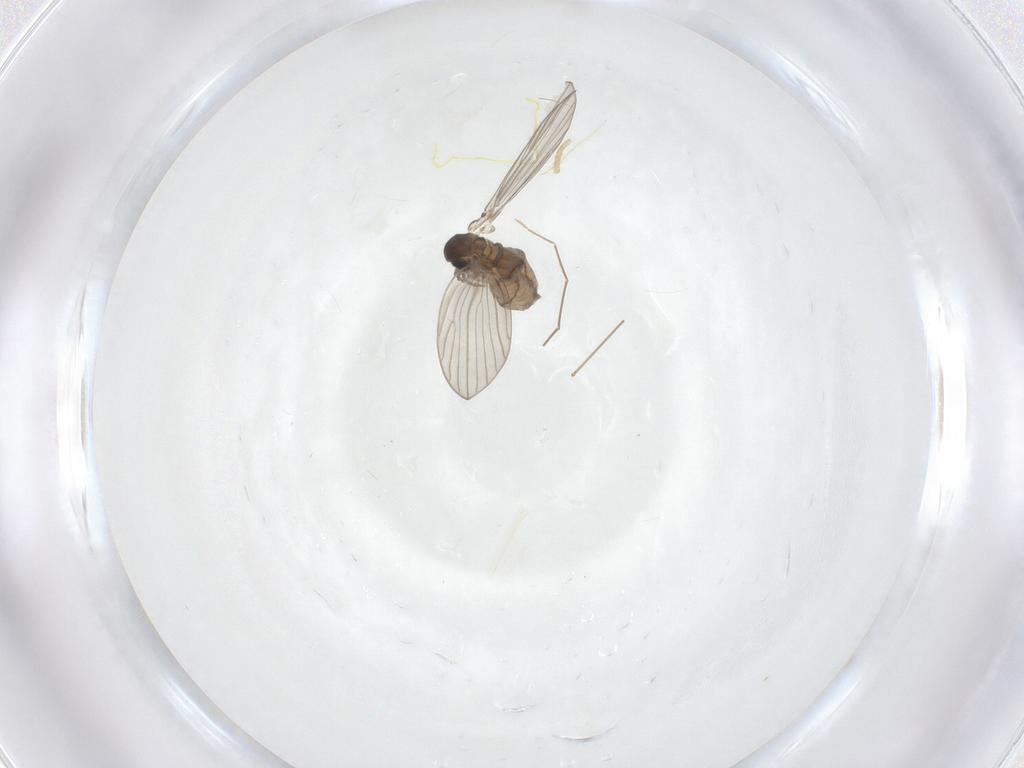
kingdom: Animalia
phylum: Arthropoda
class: Insecta
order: Diptera
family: Psychodidae
